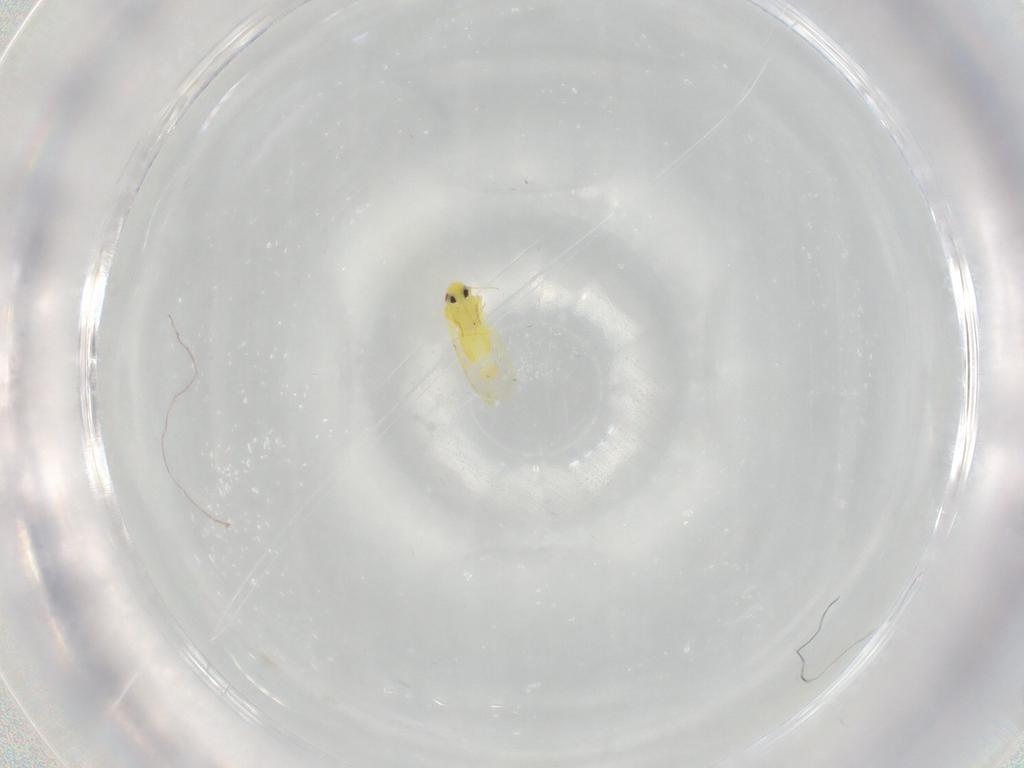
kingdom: Animalia
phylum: Arthropoda
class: Insecta
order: Hemiptera
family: Aleyrodidae
